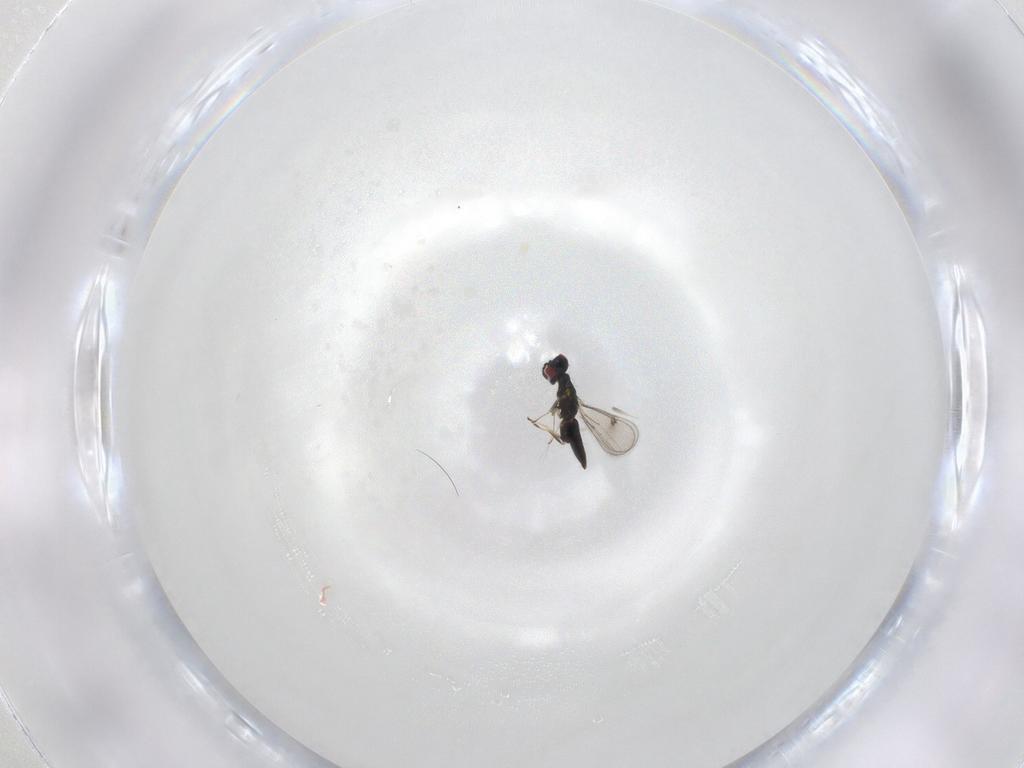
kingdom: Animalia
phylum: Arthropoda
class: Insecta
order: Hymenoptera
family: Eulophidae
